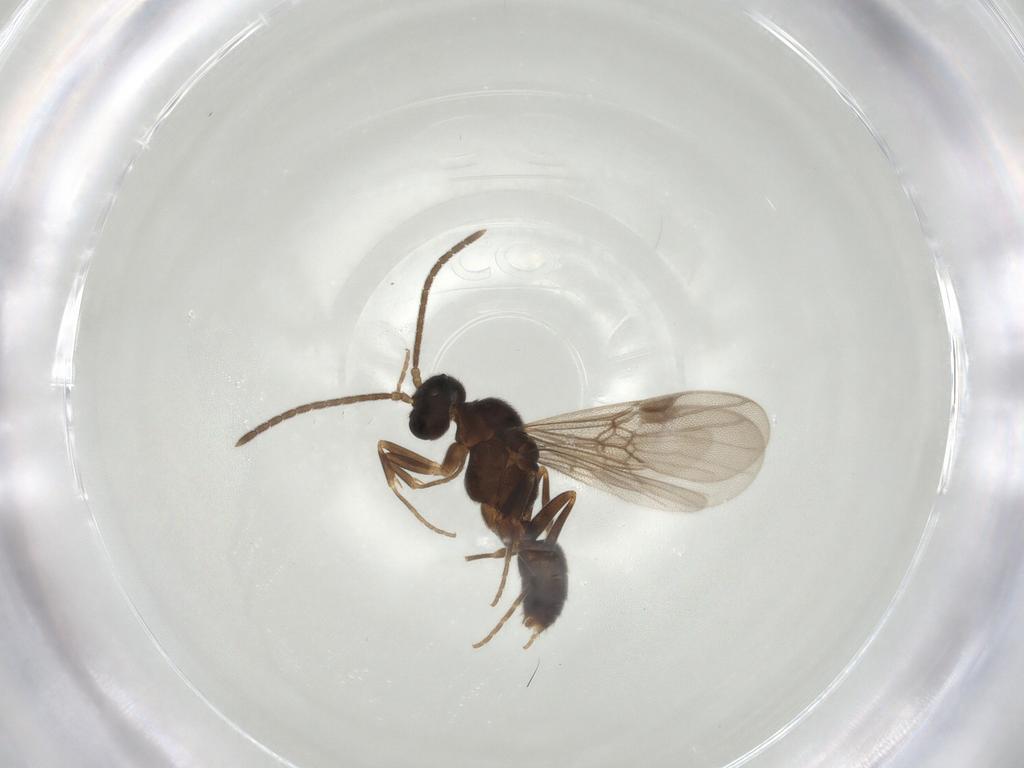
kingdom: Animalia
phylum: Arthropoda
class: Insecta
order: Hymenoptera
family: Formicidae
